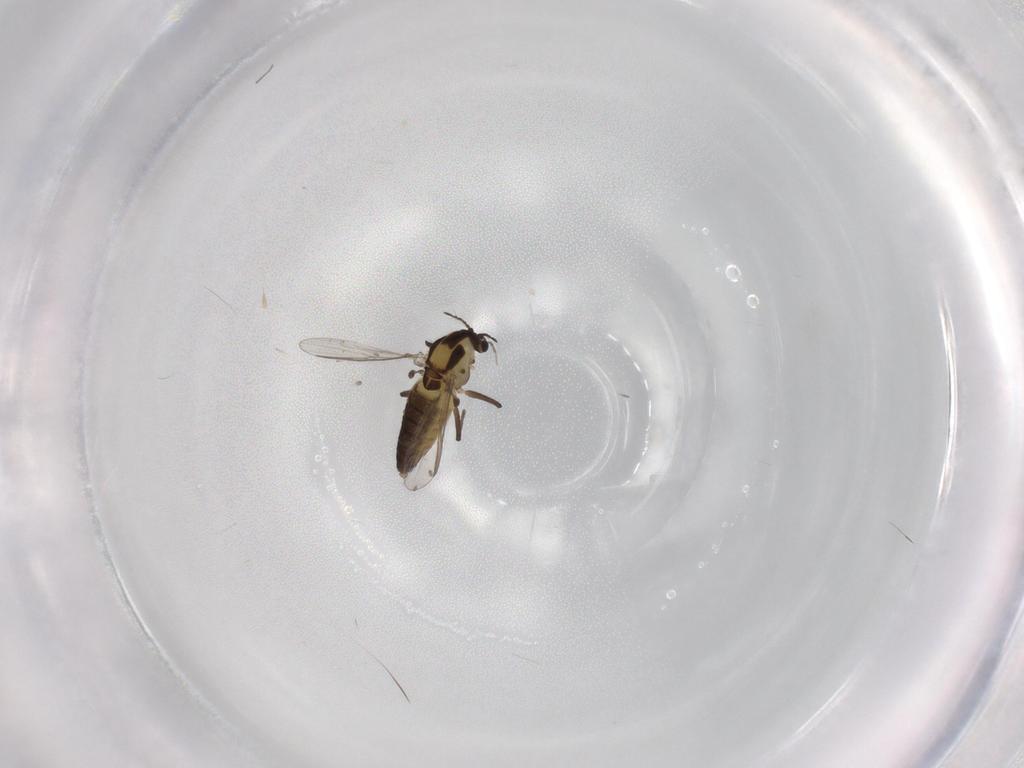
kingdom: Animalia
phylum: Arthropoda
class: Insecta
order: Diptera
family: Chironomidae
